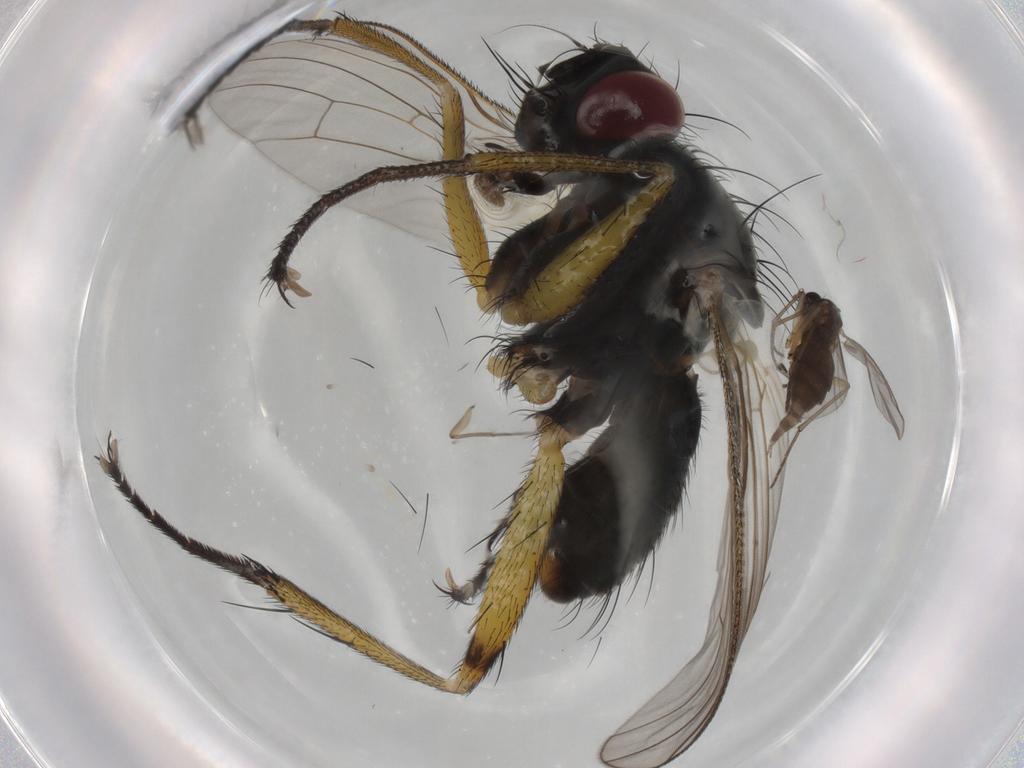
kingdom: Animalia
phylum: Arthropoda
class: Insecta
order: Diptera
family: Muscidae
